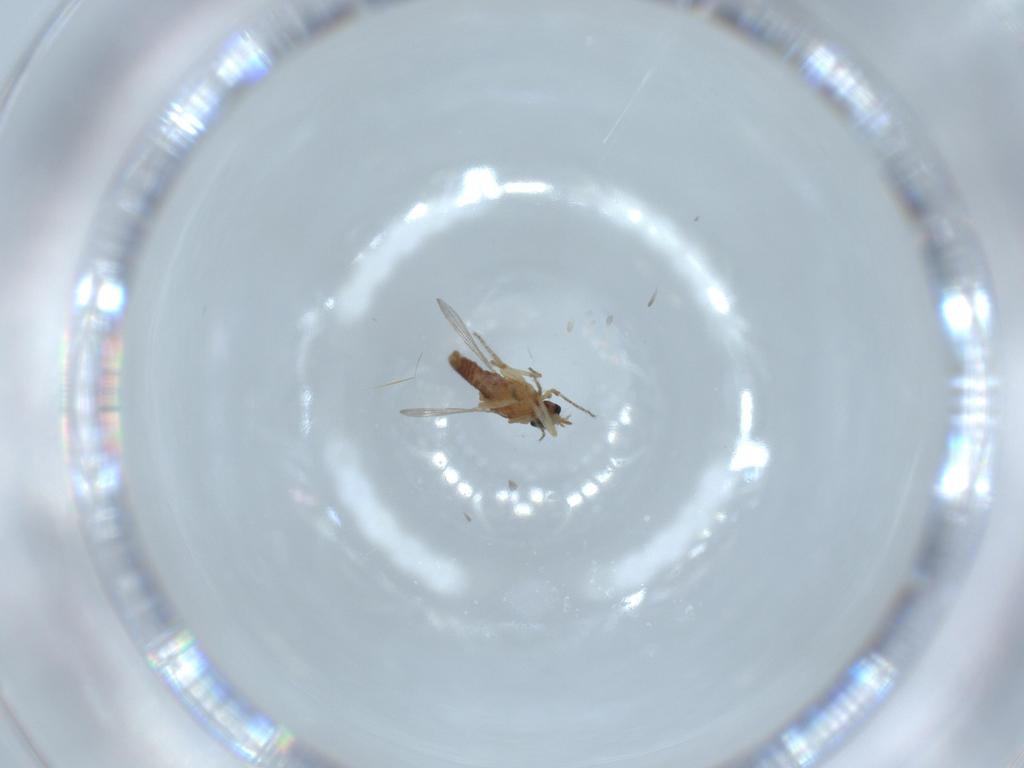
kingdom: Animalia
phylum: Arthropoda
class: Insecta
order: Diptera
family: Ceratopogonidae
